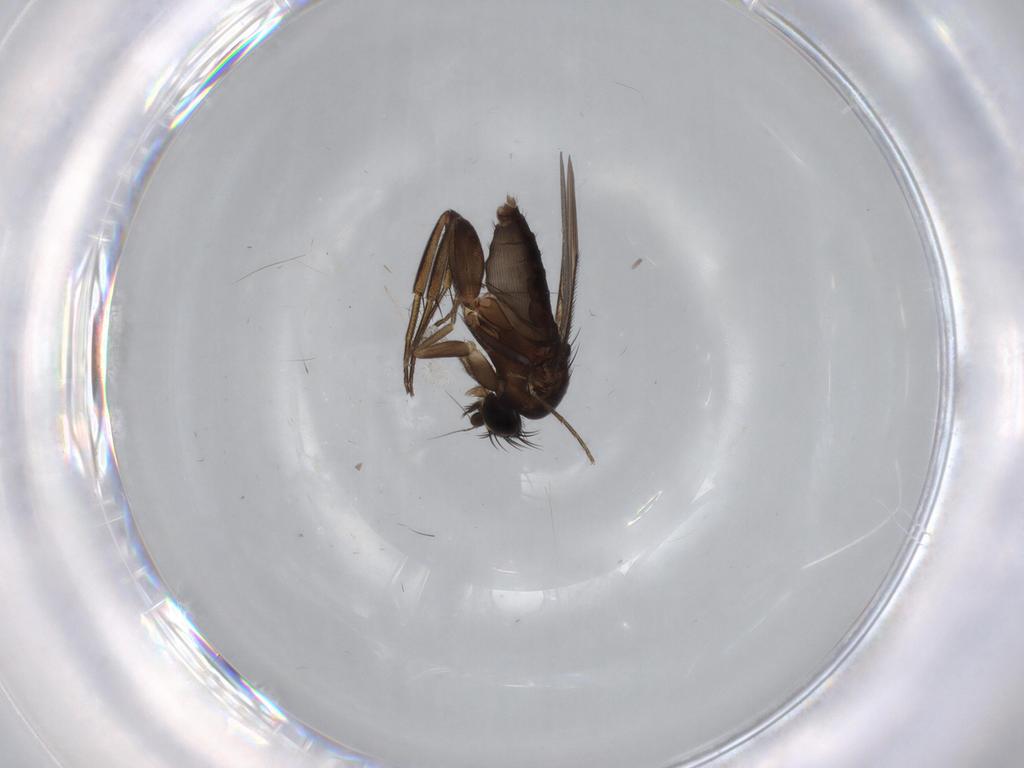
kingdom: Animalia
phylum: Arthropoda
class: Insecta
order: Diptera
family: Phoridae
